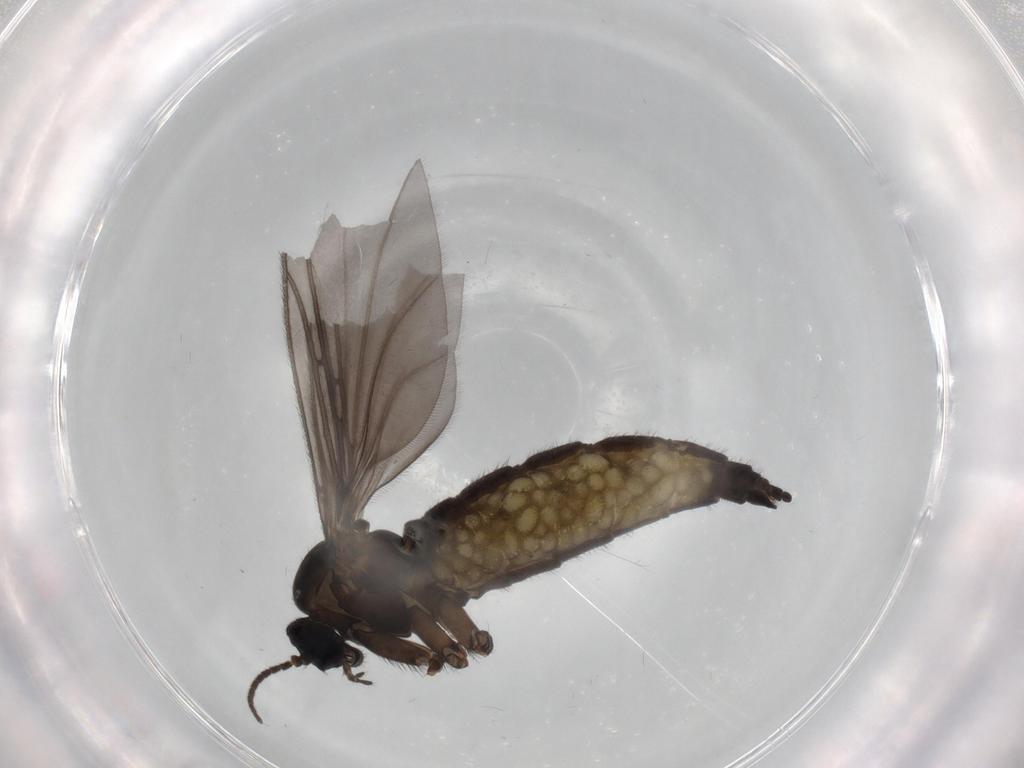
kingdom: Animalia
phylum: Arthropoda
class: Insecta
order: Diptera
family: Sciaridae
